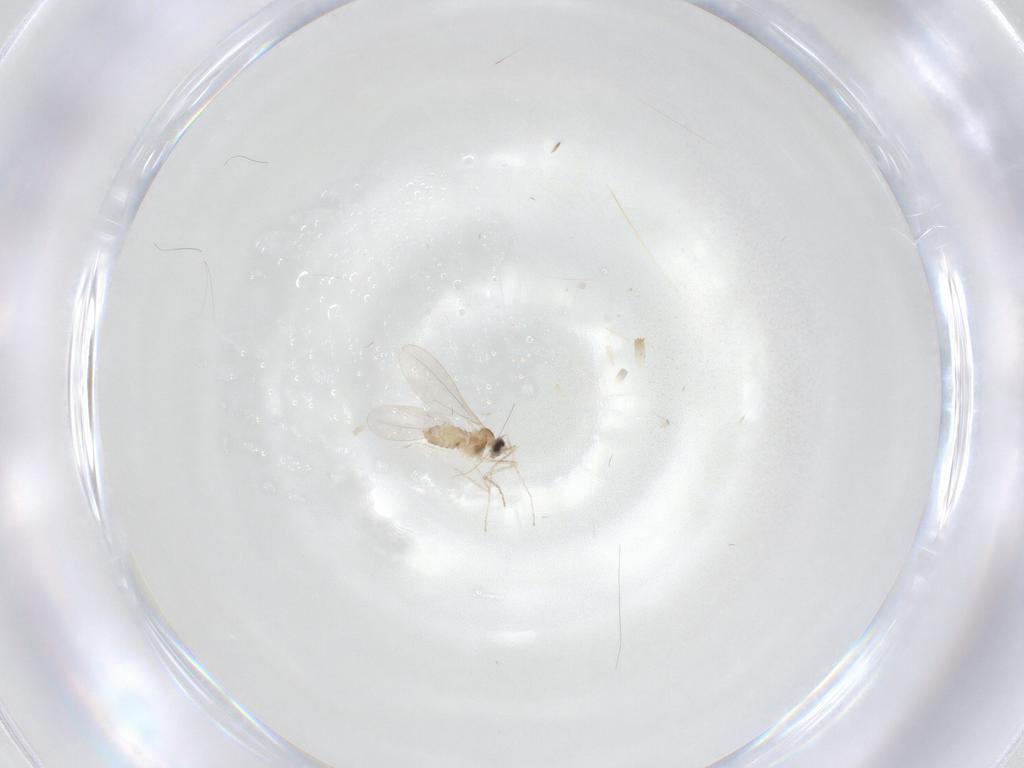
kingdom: Animalia
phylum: Arthropoda
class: Insecta
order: Diptera
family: Cecidomyiidae
